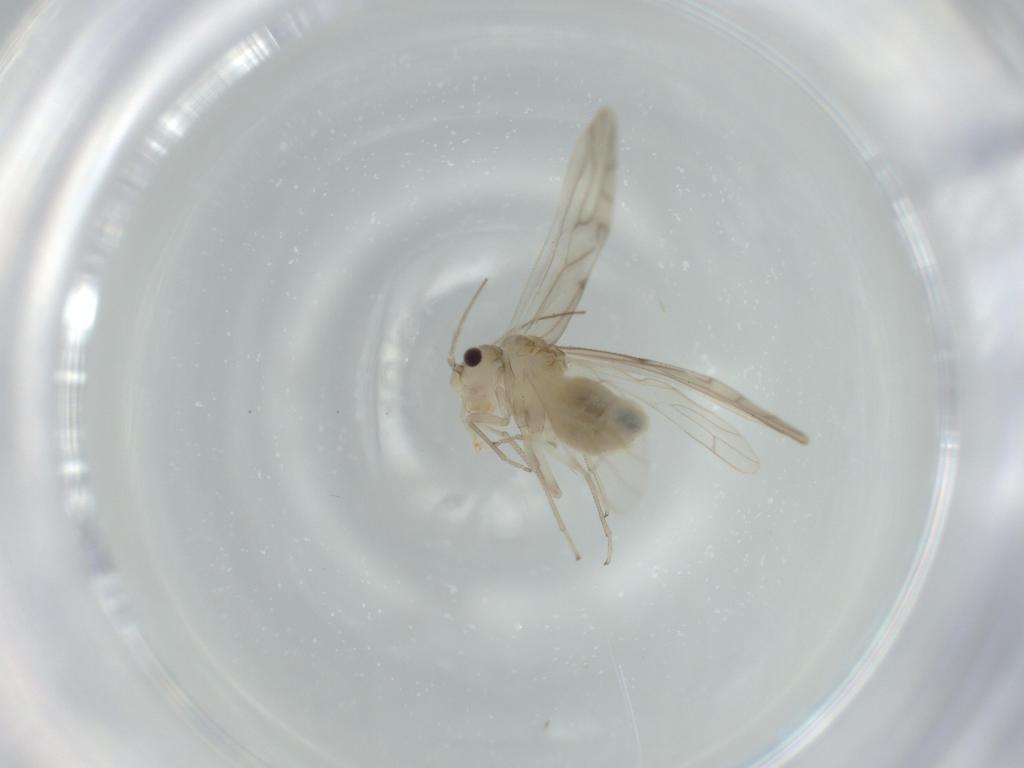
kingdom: Animalia
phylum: Arthropoda
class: Insecta
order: Psocodea
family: Caeciliusidae
